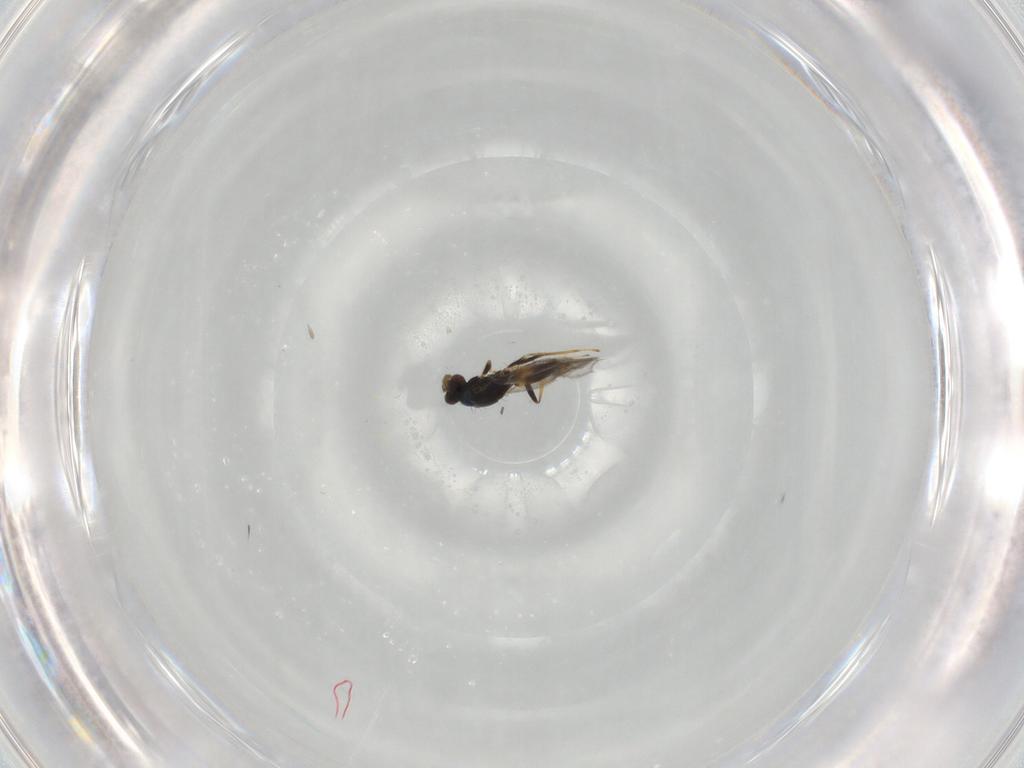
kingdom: Animalia
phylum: Arthropoda
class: Insecta
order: Hymenoptera
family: Eulophidae
